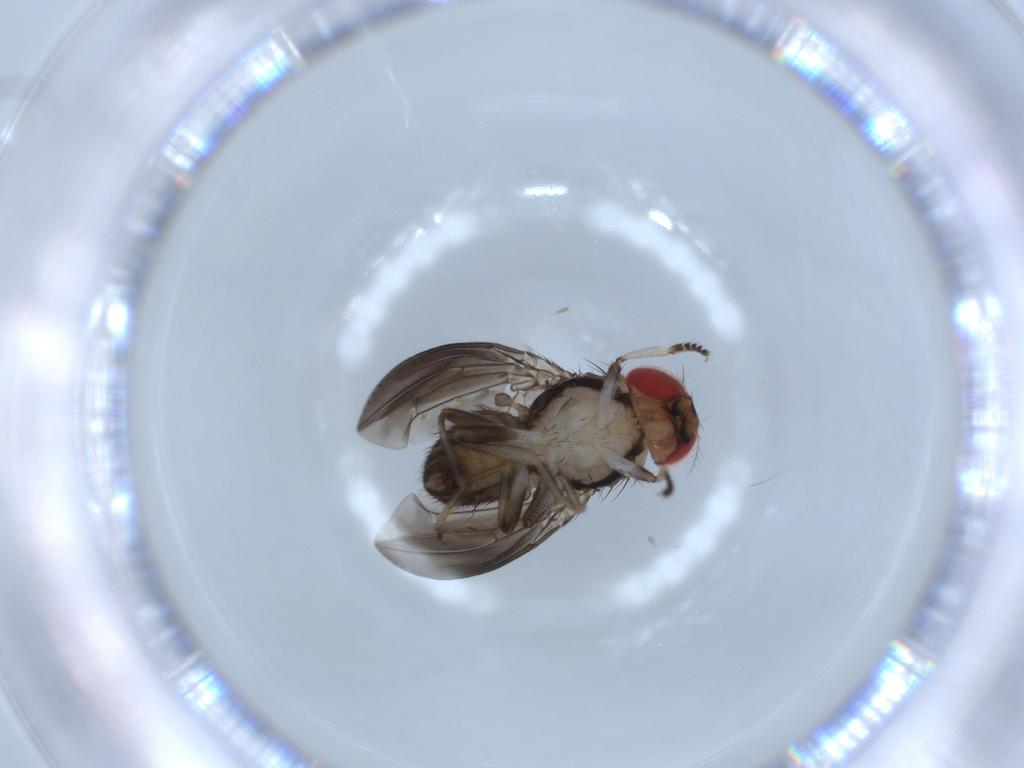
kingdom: Animalia
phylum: Arthropoda
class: Insecta
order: Diptera
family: Drosophilidae
